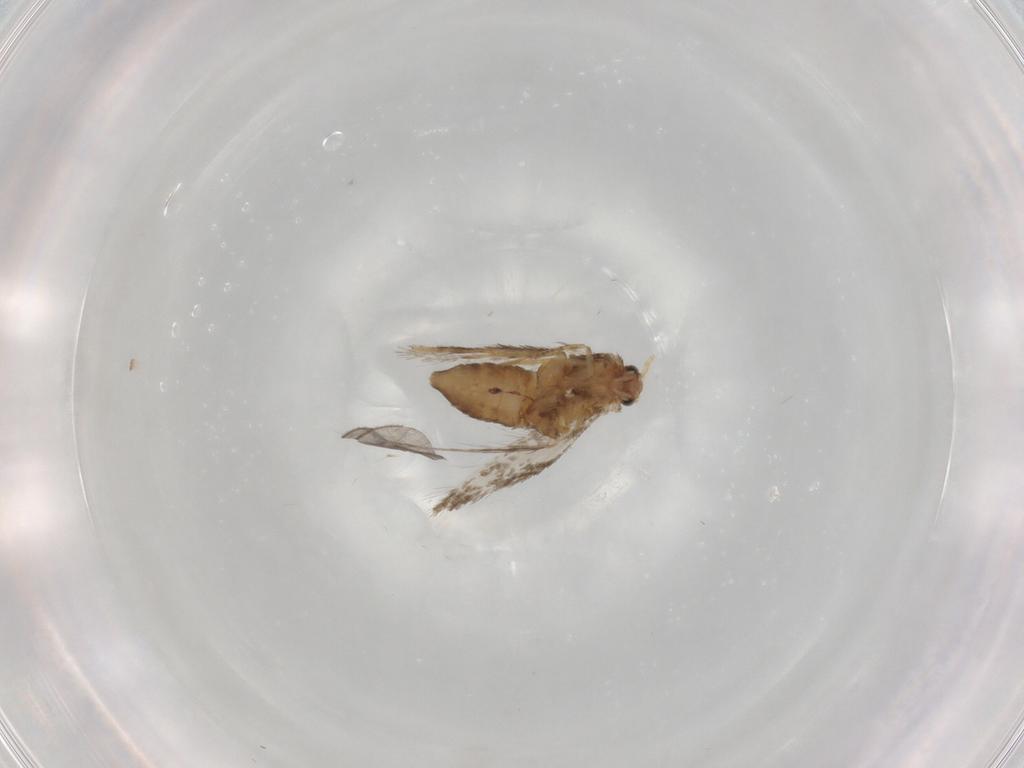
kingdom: Animalia
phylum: Arthropoda
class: Insecta
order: Lepidoptera
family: Nepticulidae
